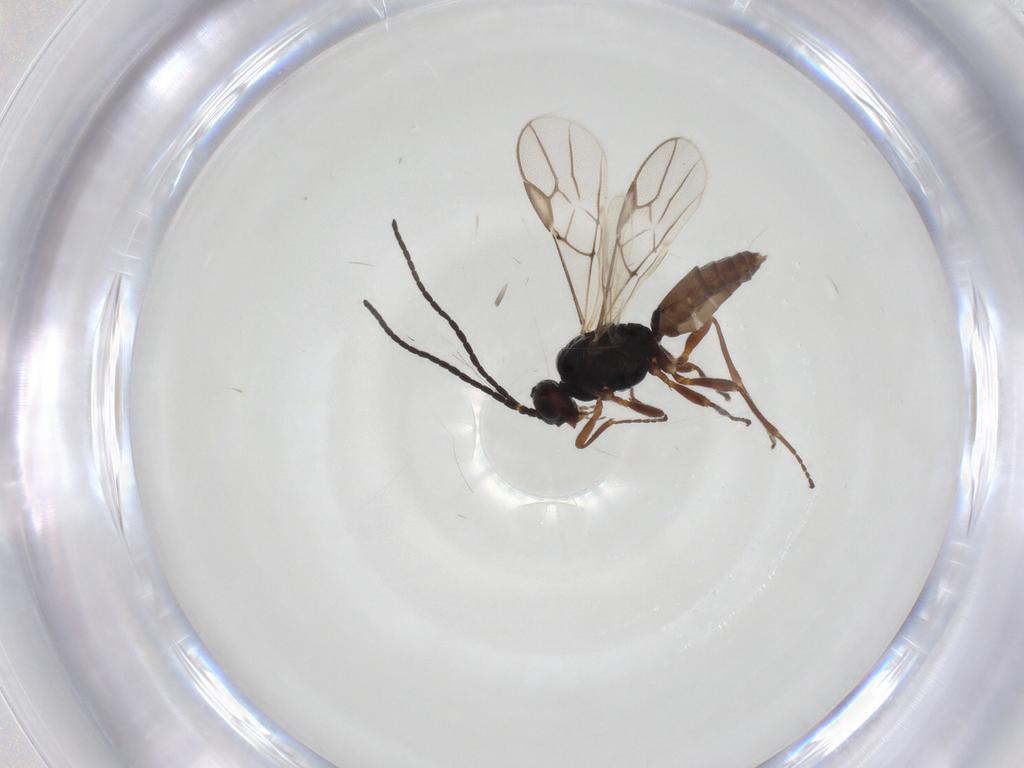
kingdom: Animalia
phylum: Arthropoda
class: Insecta
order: Hymenoptera
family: Braconidae
